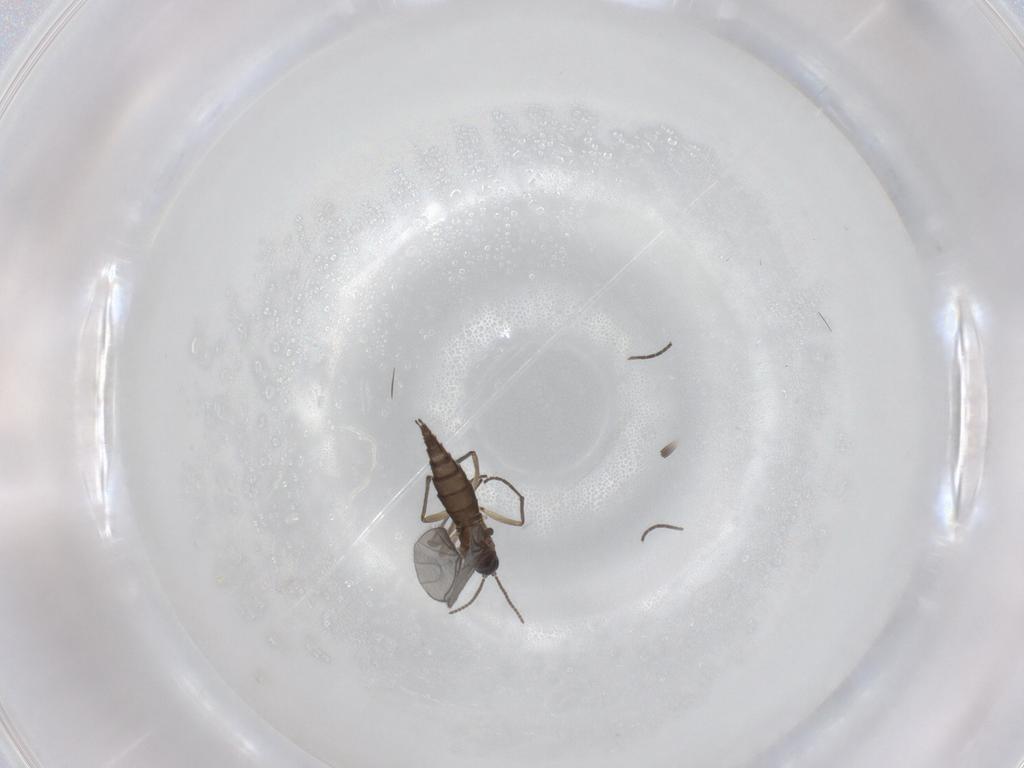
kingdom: Animalia
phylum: Arthropoda
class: Insecta
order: Diptera
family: Sciaridae
